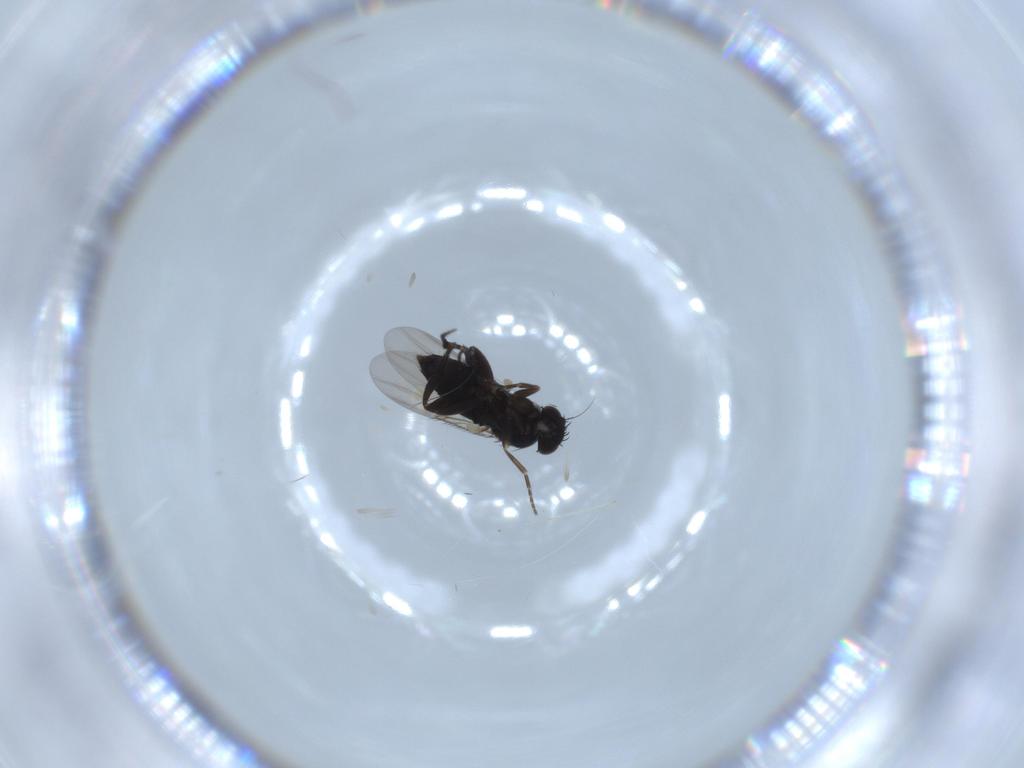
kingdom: Animalia
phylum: Arthropoda
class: Insecta
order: Diptera
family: Phoridae
